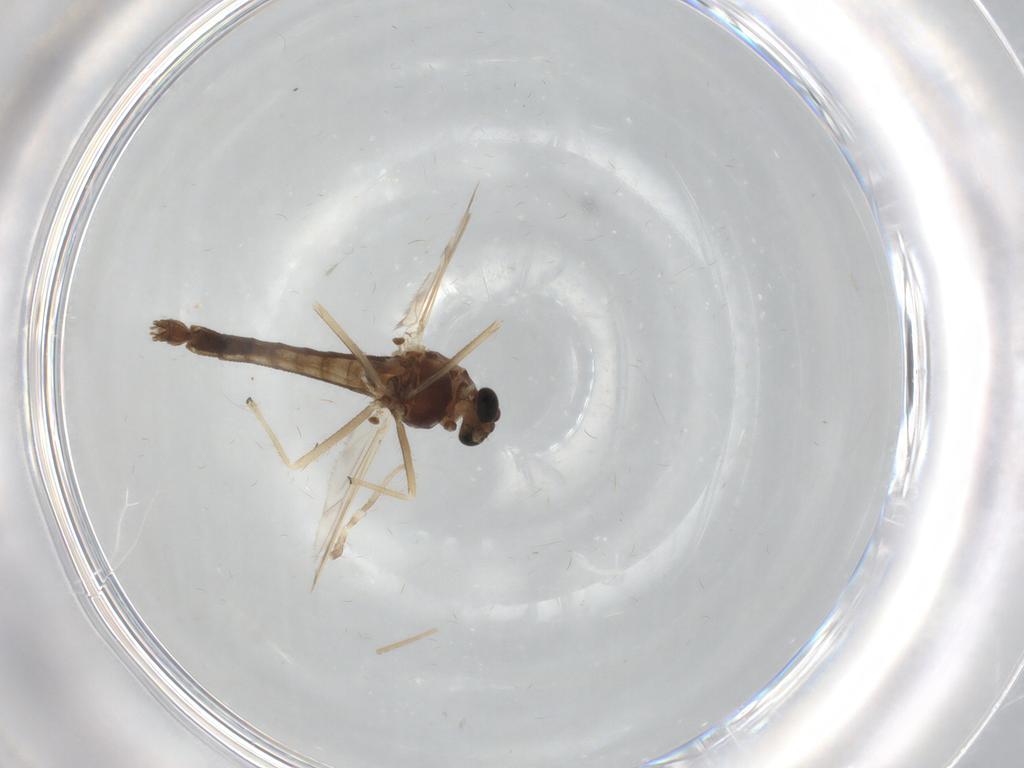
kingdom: Animalia
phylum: Arthropoda
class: Insecta
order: Diptera
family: Chironomidae
